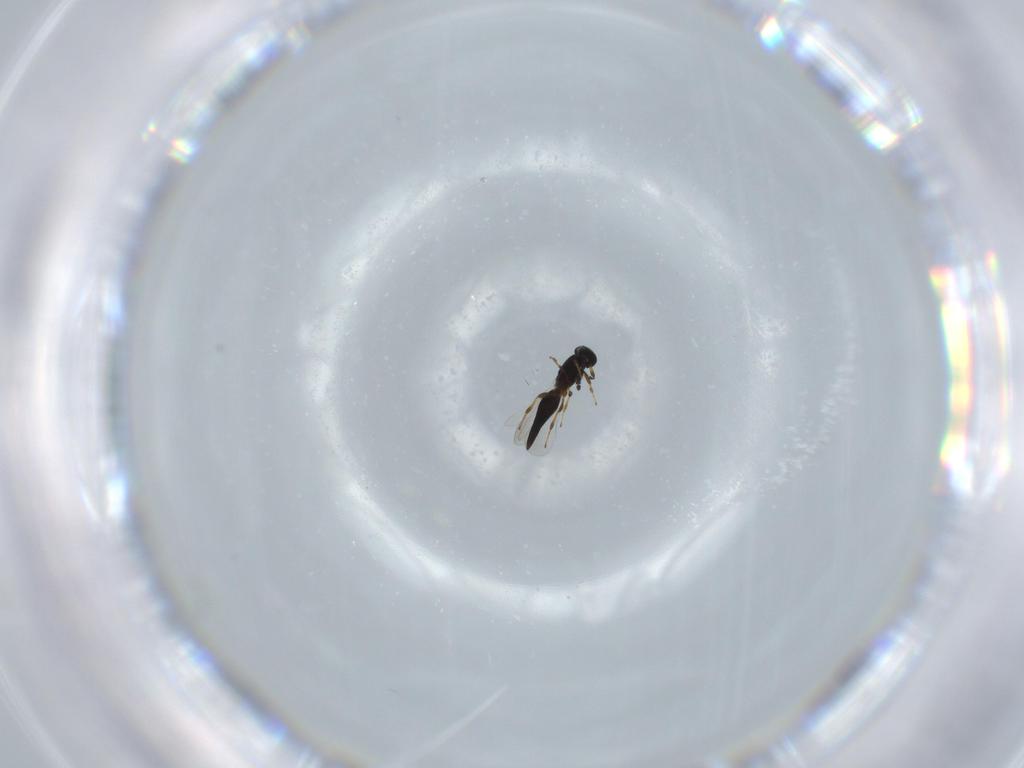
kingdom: Animalia
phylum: Arthropoda
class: Insecta
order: Hymenoptera
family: Platygastridae
